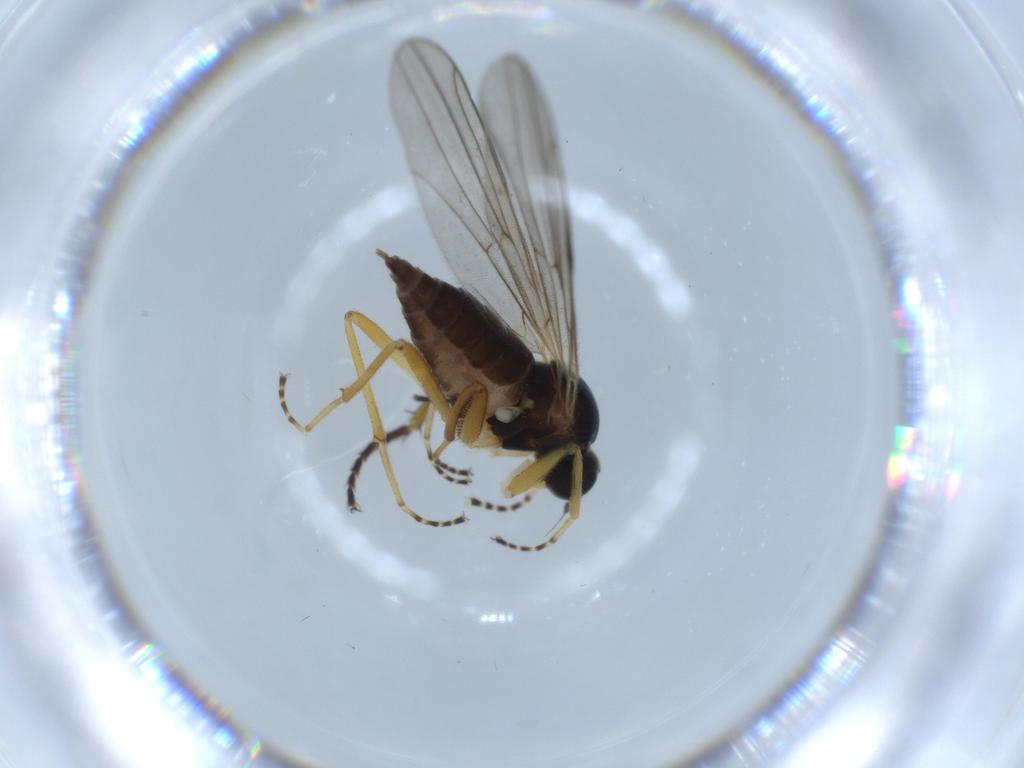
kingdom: Animalia
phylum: Arthropoda
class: Insecta
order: Diptera
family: Hybotidae
